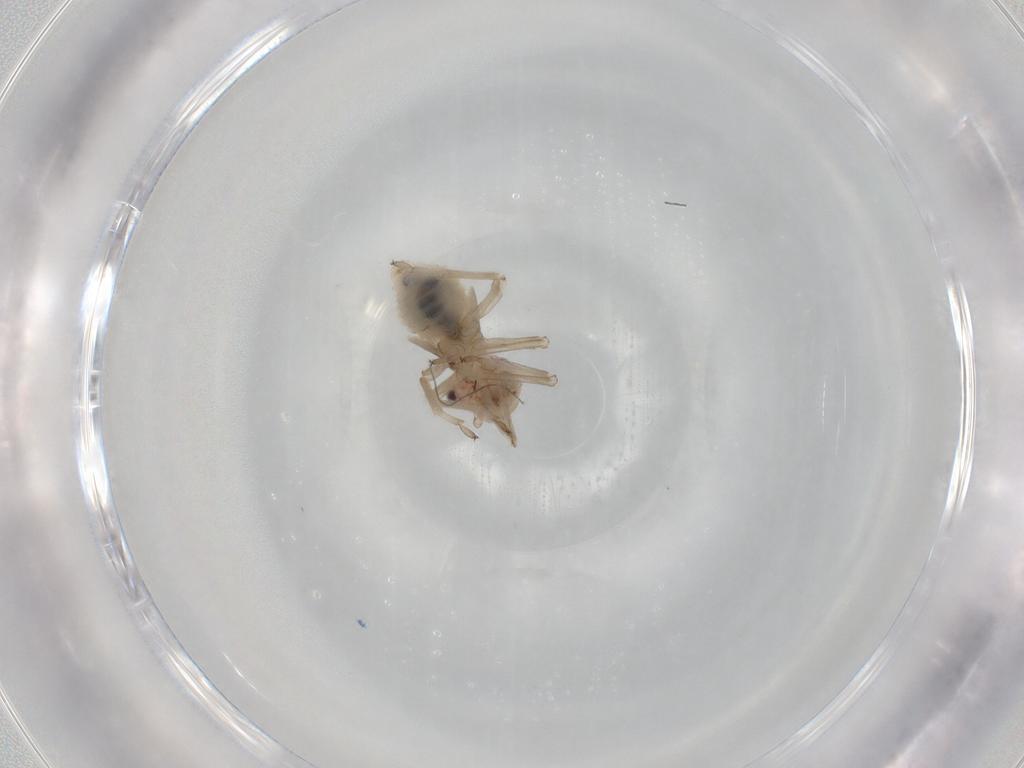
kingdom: Animalia
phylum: Arthropoda
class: Insecta
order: Psocodea
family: Stenopsocidae
